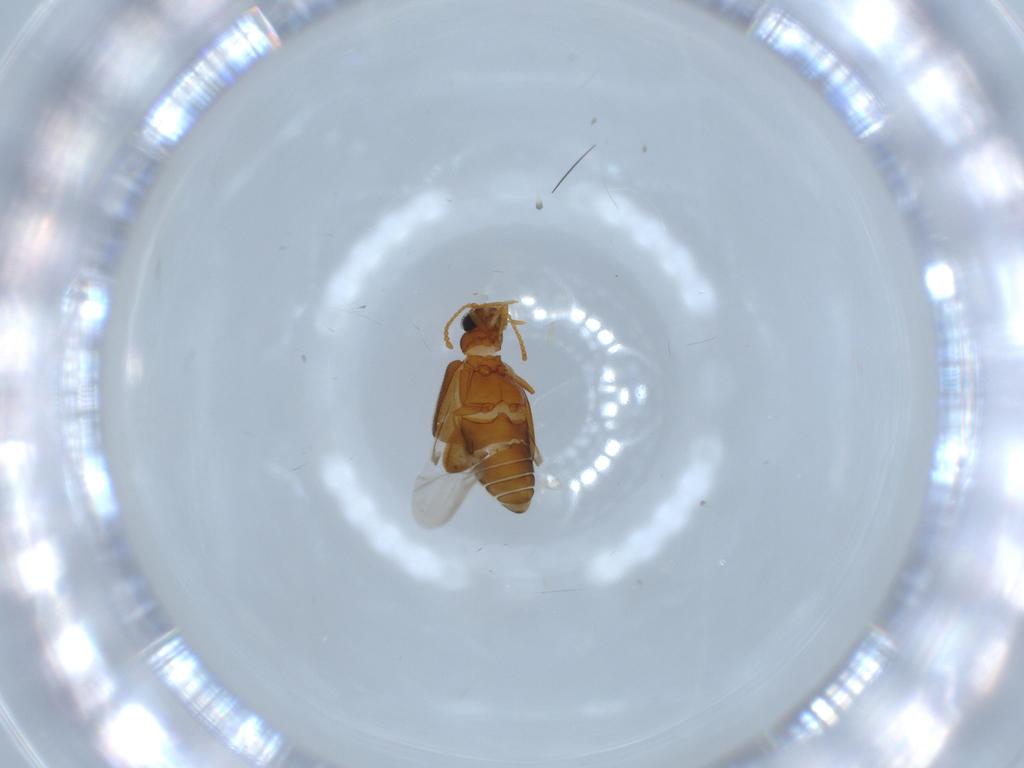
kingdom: Animalia
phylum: Arthropoda
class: Insecta
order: Coleoptera
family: Aderidae
